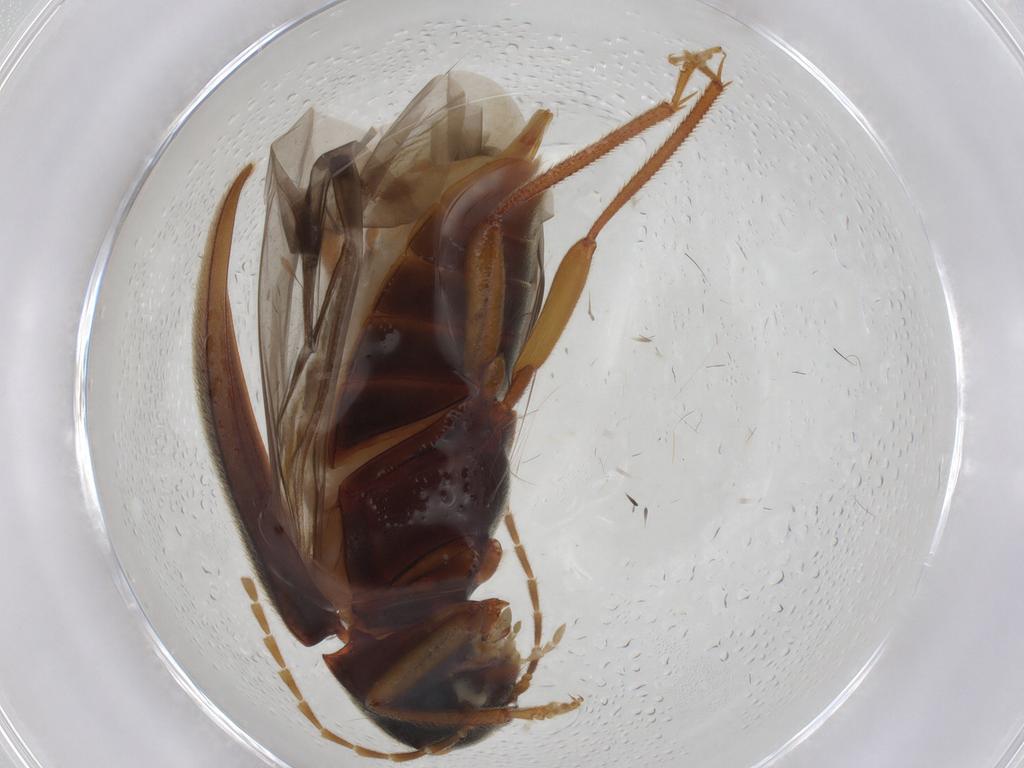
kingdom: Animalia
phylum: Arthropoda
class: Insecta
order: Coleoptera
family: Ptilodactylidae
